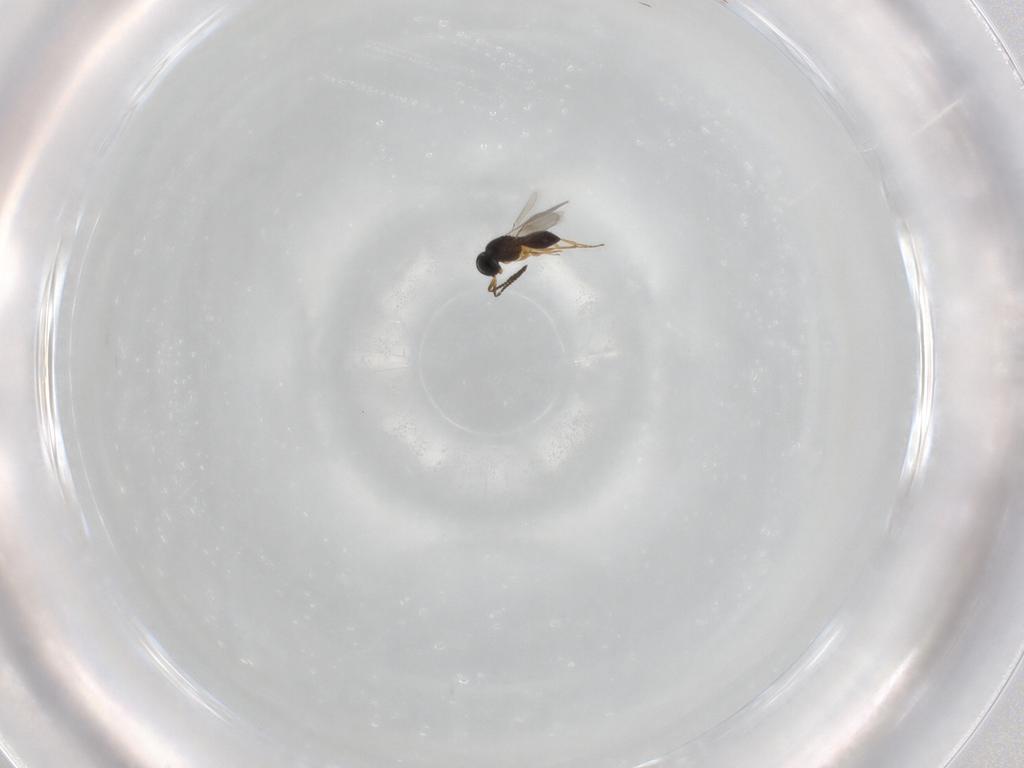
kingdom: Animalia
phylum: Arthropoda
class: Insecta
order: Hymenoptera
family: Scelionidae
